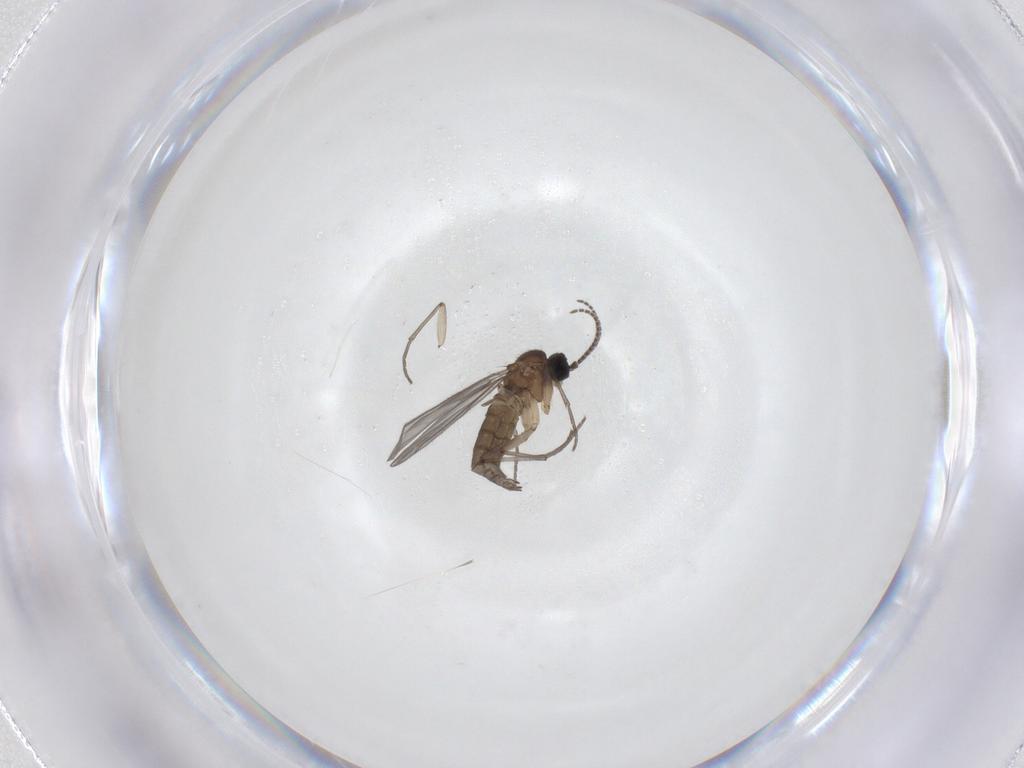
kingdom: Animalia
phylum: Arthropoda
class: Insecta
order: Diptera
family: Sciaridae
